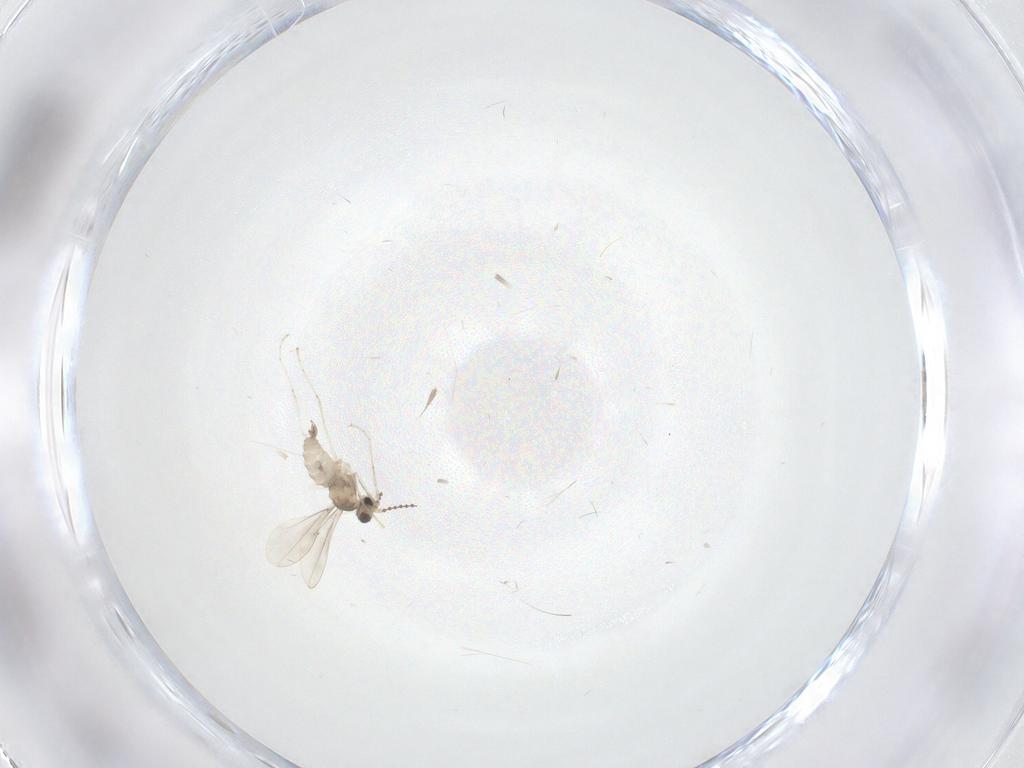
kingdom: Animalia
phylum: Arthropoda
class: Insecta
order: Diptera
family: Cecidomyiidae
